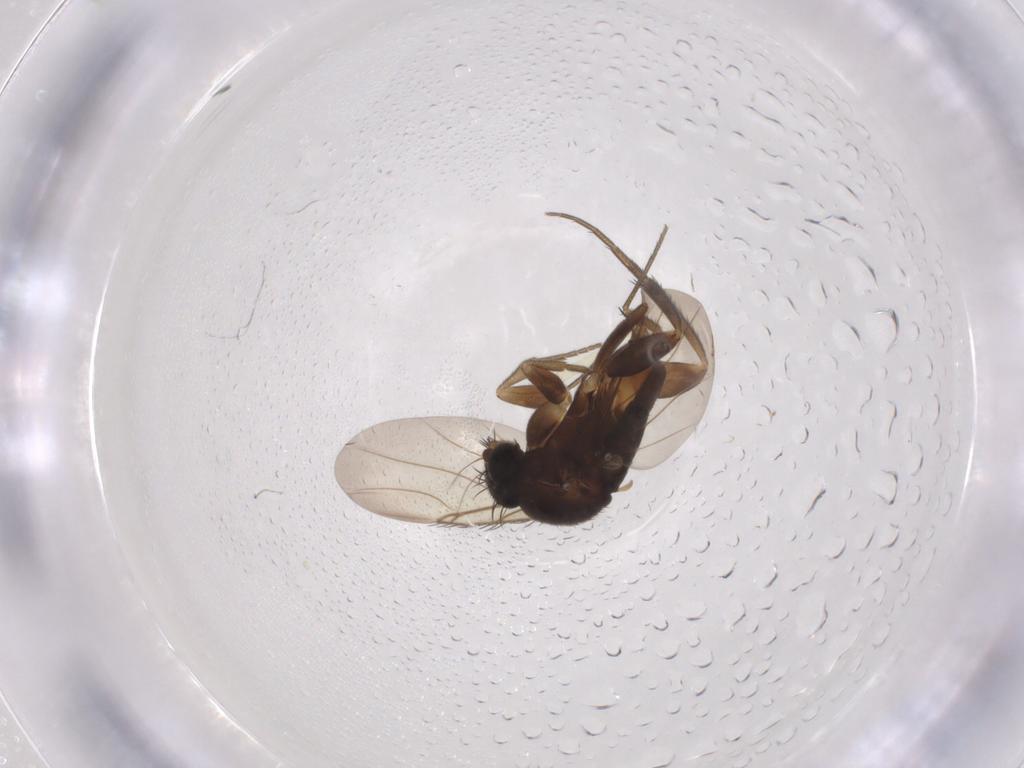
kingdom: Animalia
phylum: Arthropoda
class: Insecta
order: Diptera
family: Phoridae
